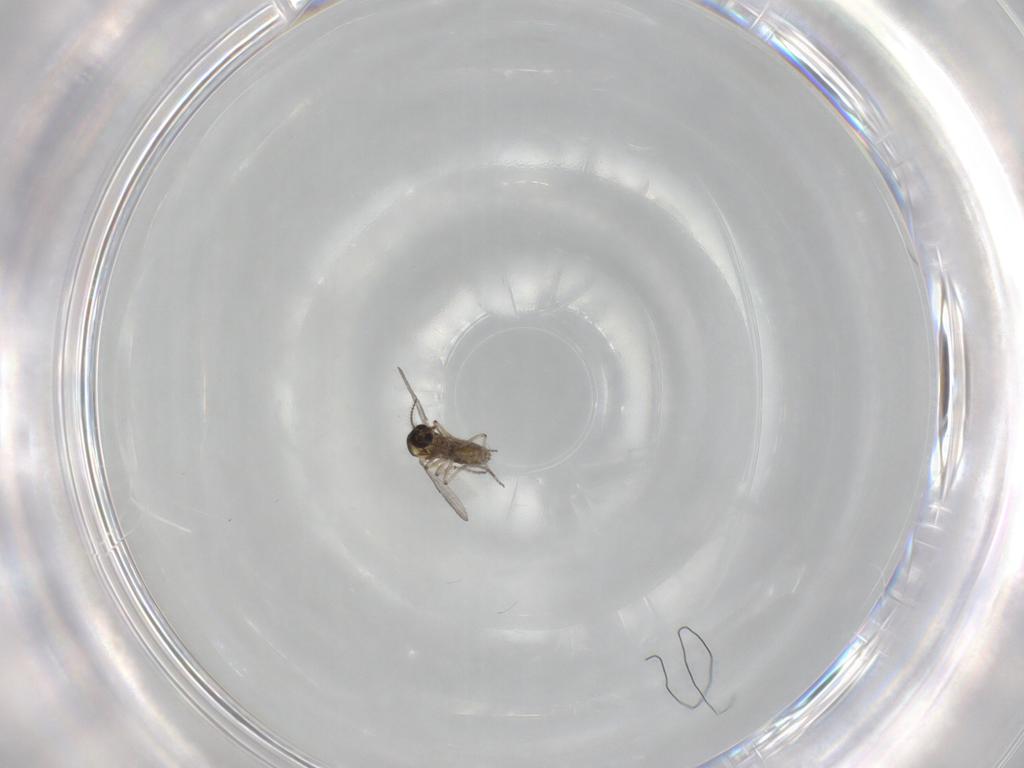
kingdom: Animalia
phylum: Arthropoda
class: Insecta
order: Diptera
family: Ceratopogonidae
